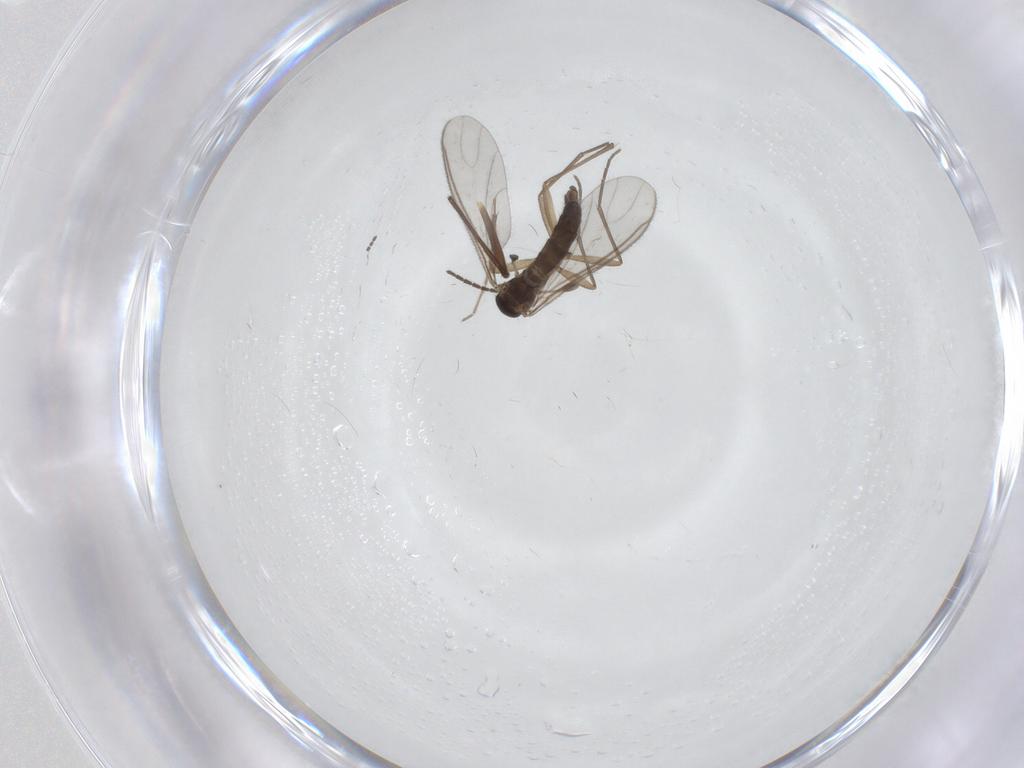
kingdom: Animalia
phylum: Arthropoda
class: Insecta
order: Diptera
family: Sciaridae
